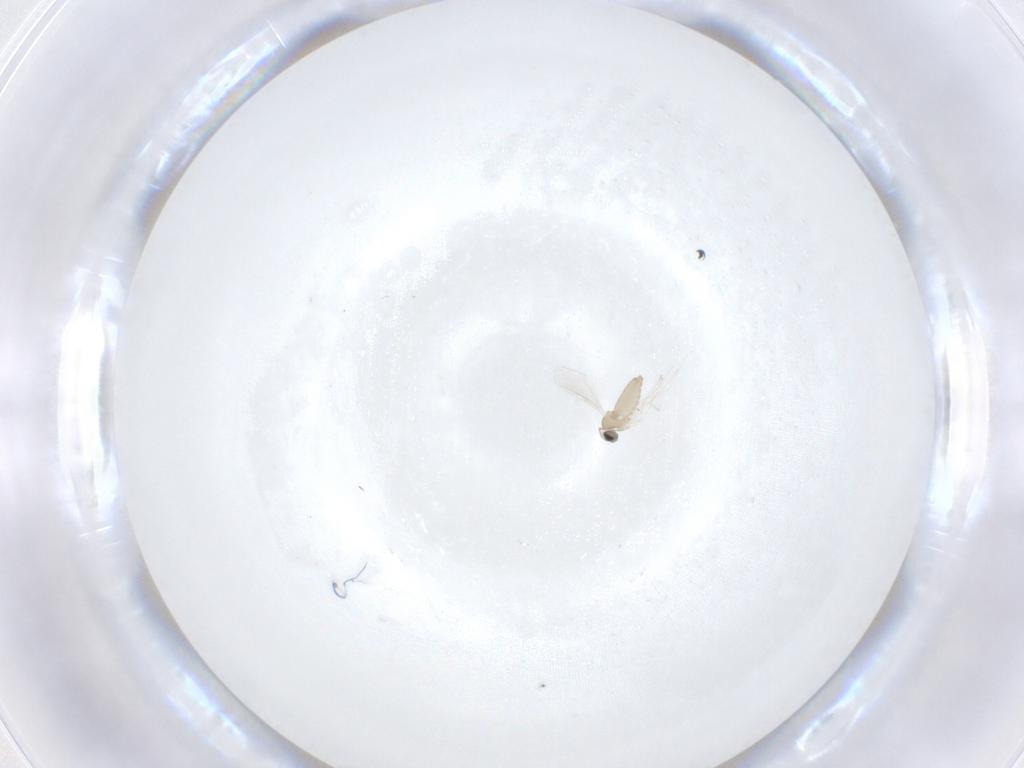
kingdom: Animalia
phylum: Arthropoda
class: Insecta
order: Diptera
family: Cecidomyiidae
